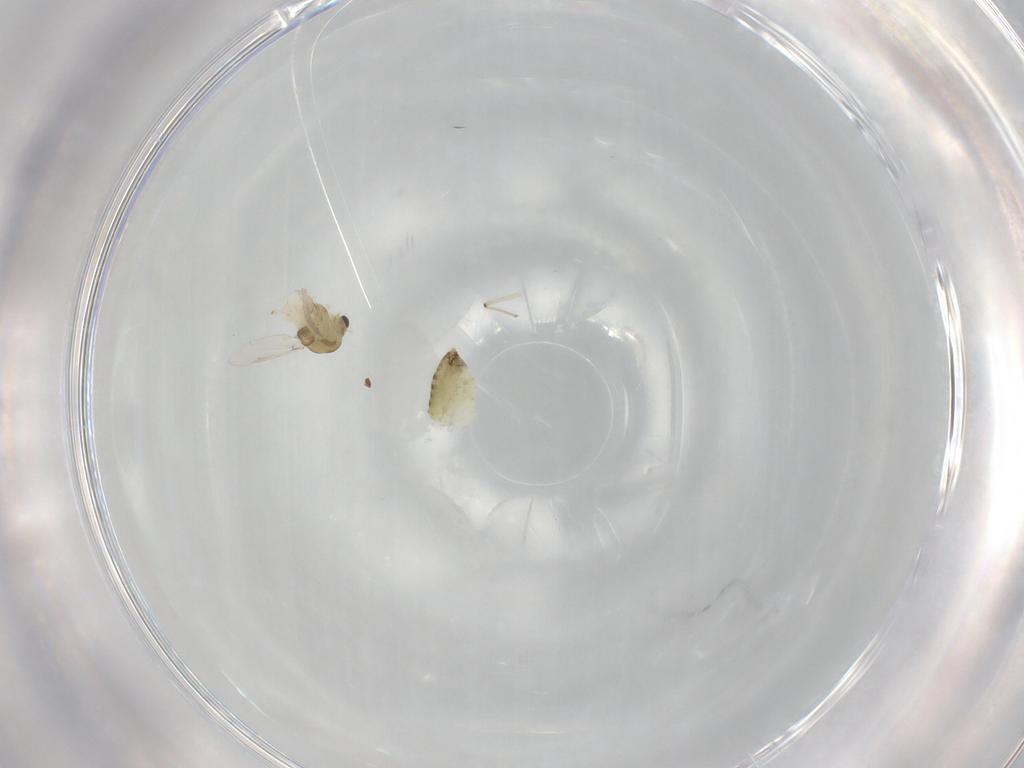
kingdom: Animalia
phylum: Arthropoda
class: Insecta
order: Diptera
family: Chironomidae
